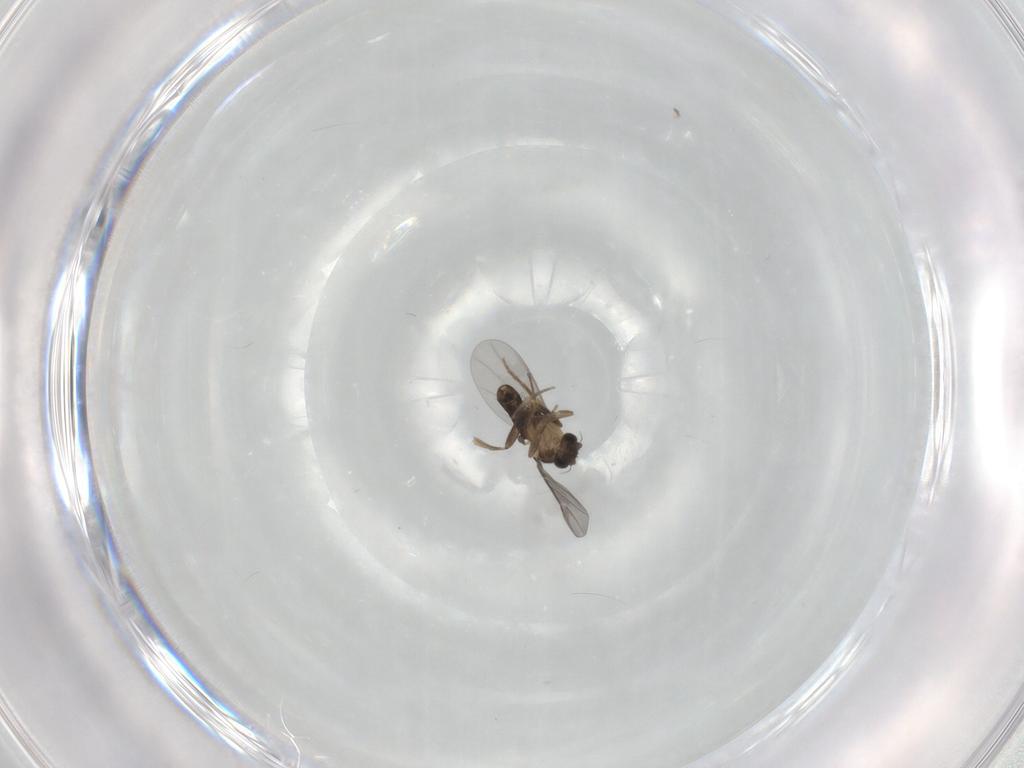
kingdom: Animalia
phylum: Arthropoda
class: Insecta
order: Diptera
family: Phoridae
